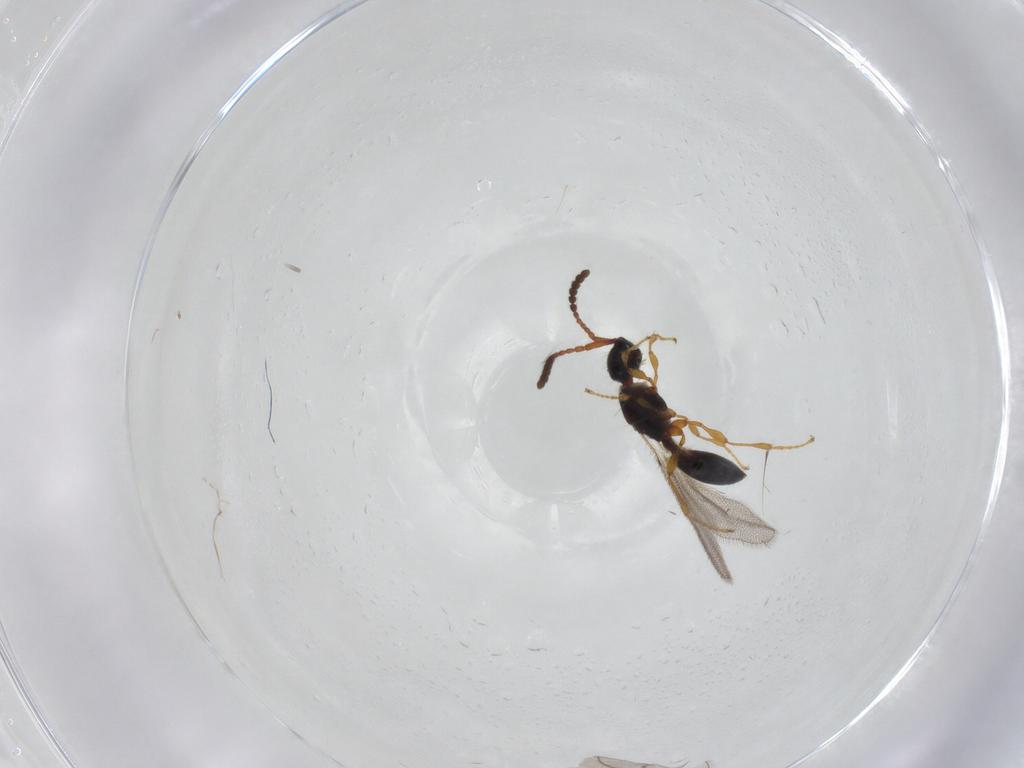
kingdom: Animalia
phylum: Arthropoda
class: Insecta
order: Hymenoptera
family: Diapriidae
